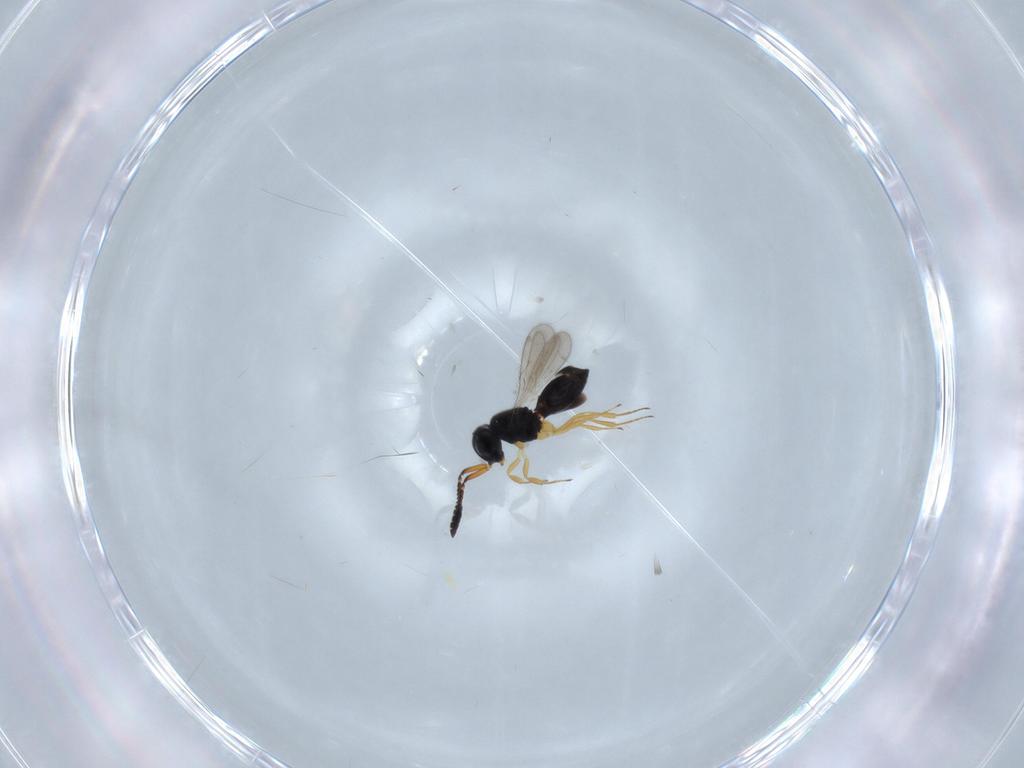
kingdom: Animalia
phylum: Arthropoda
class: Insecta
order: Hymenoptera
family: Scelionidae
